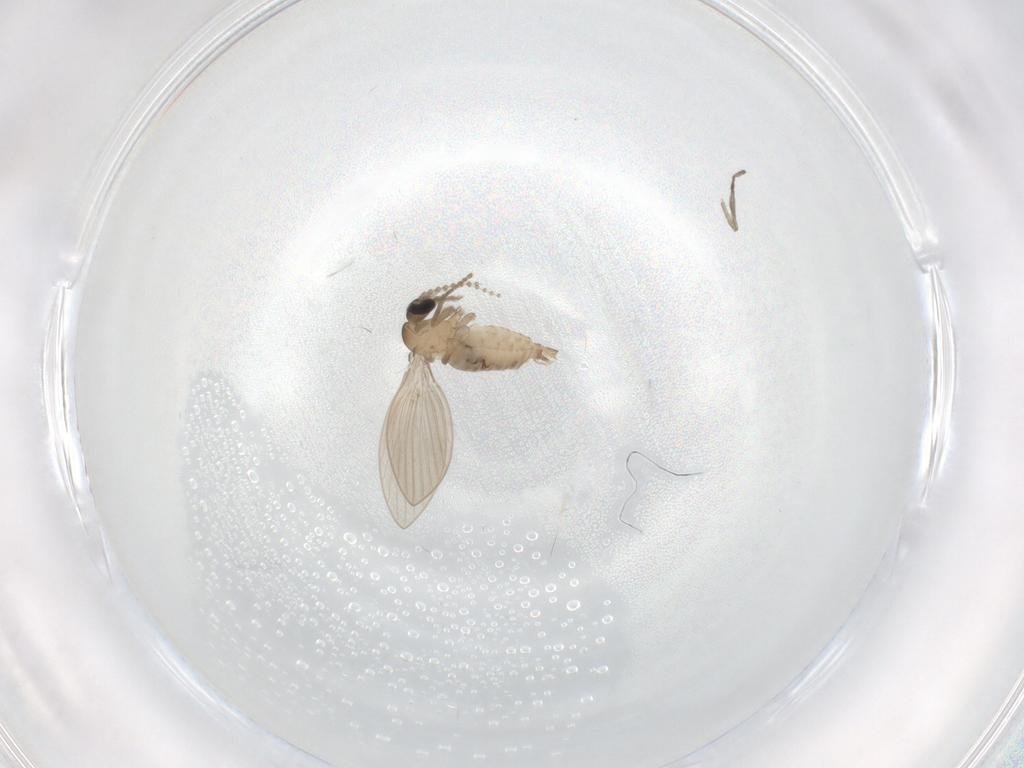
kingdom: Animalia
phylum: Arthropoda
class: Insecta
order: Diptera
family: Psychodidae
